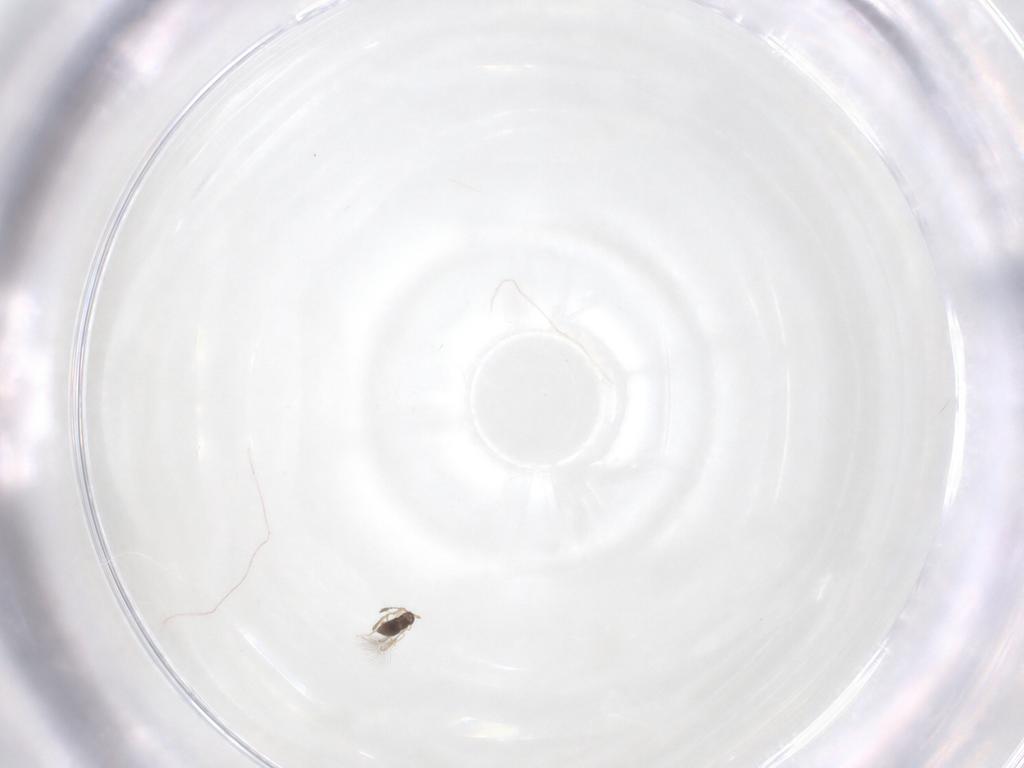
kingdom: Animalia
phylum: Arthropoda
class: Insecta
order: Hymenoptera
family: Mymaridae
